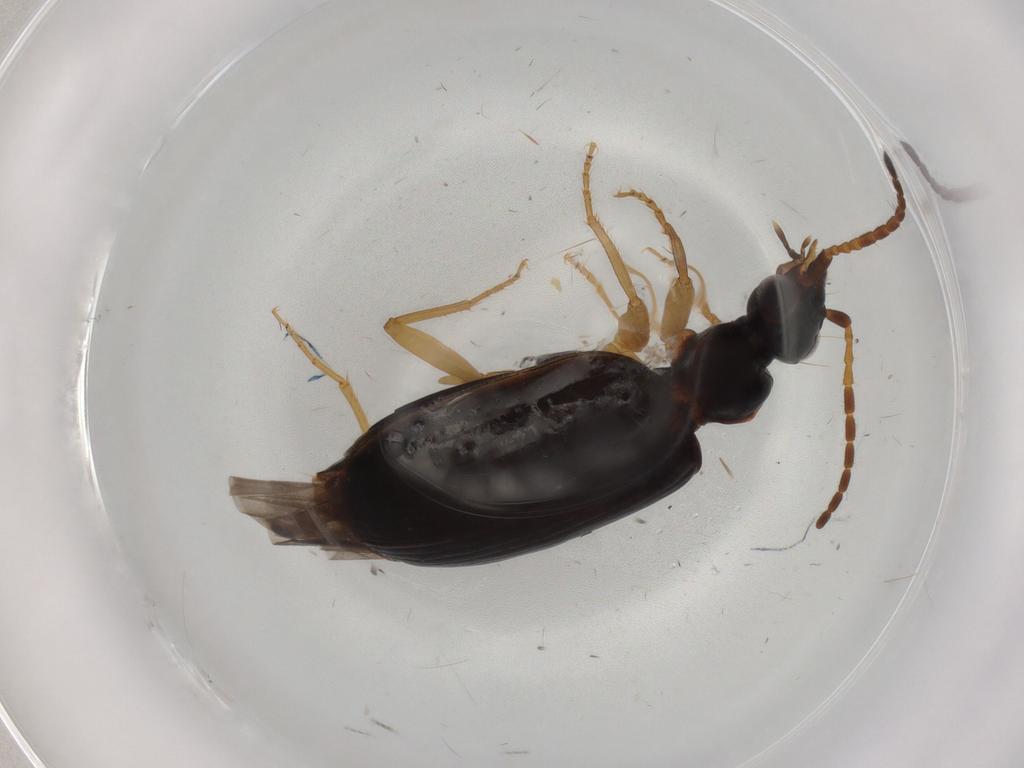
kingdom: Animalia
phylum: Arthropoda
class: Insecta
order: Coleoptera
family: Carabidae
